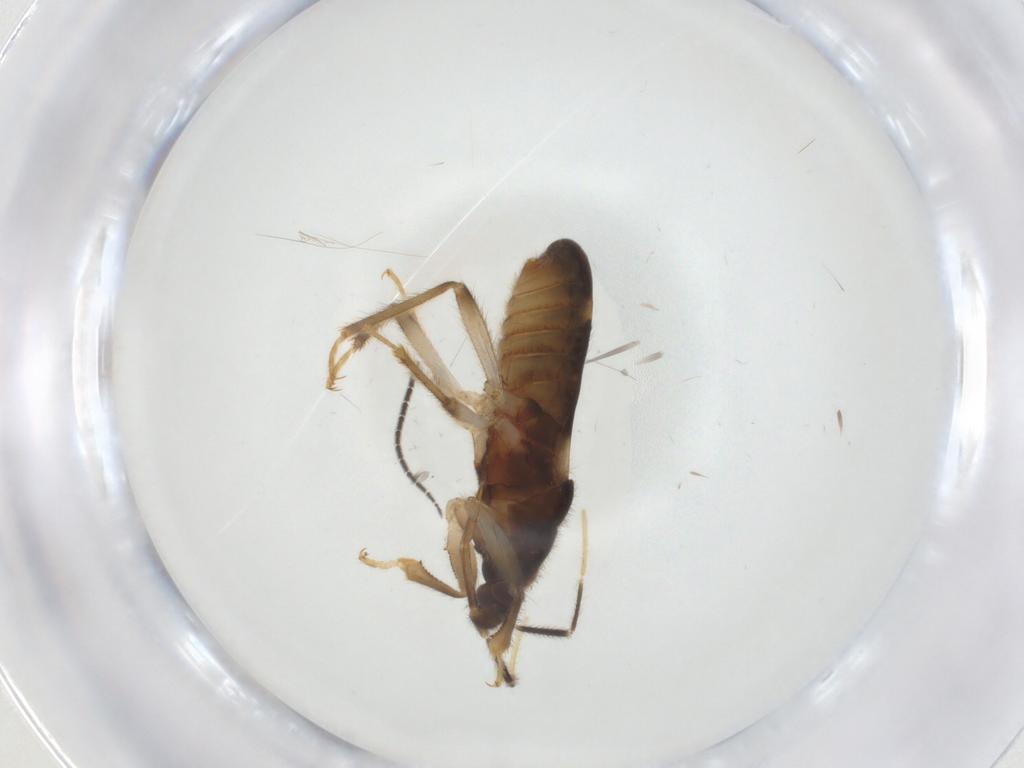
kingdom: Animalia
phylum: Arthropoda
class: Insecta
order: Hemiptera
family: Nabidae
